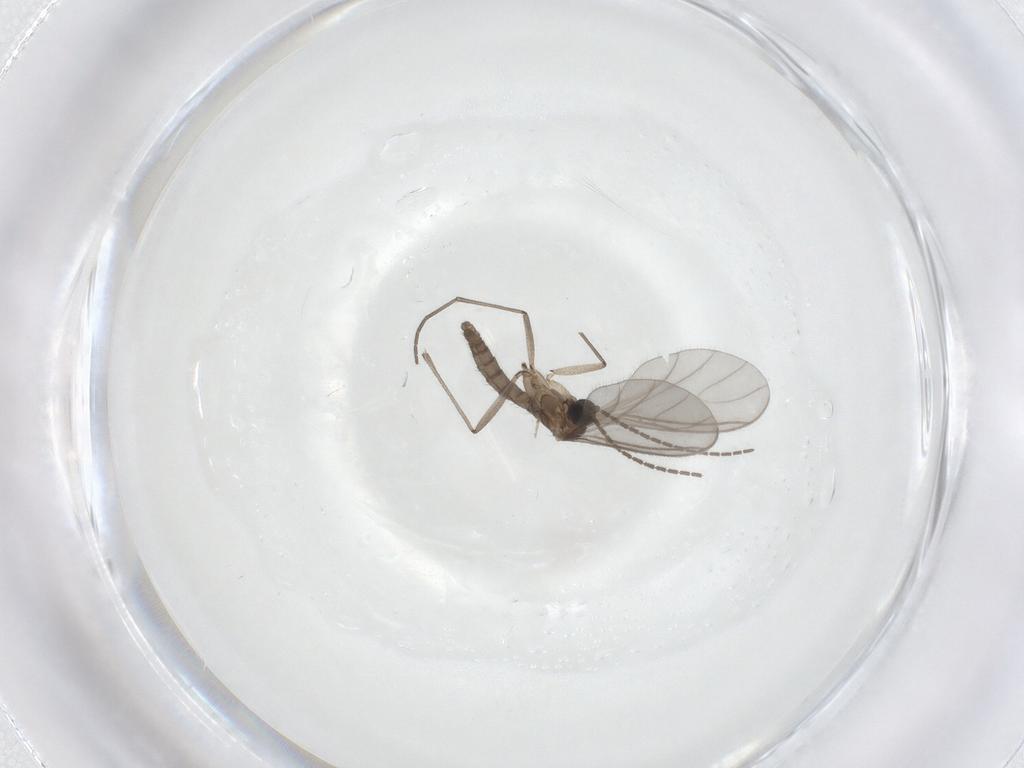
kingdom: Animalia
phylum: Arthropoda
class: Insecta
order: Diptera
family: Sciaridae
